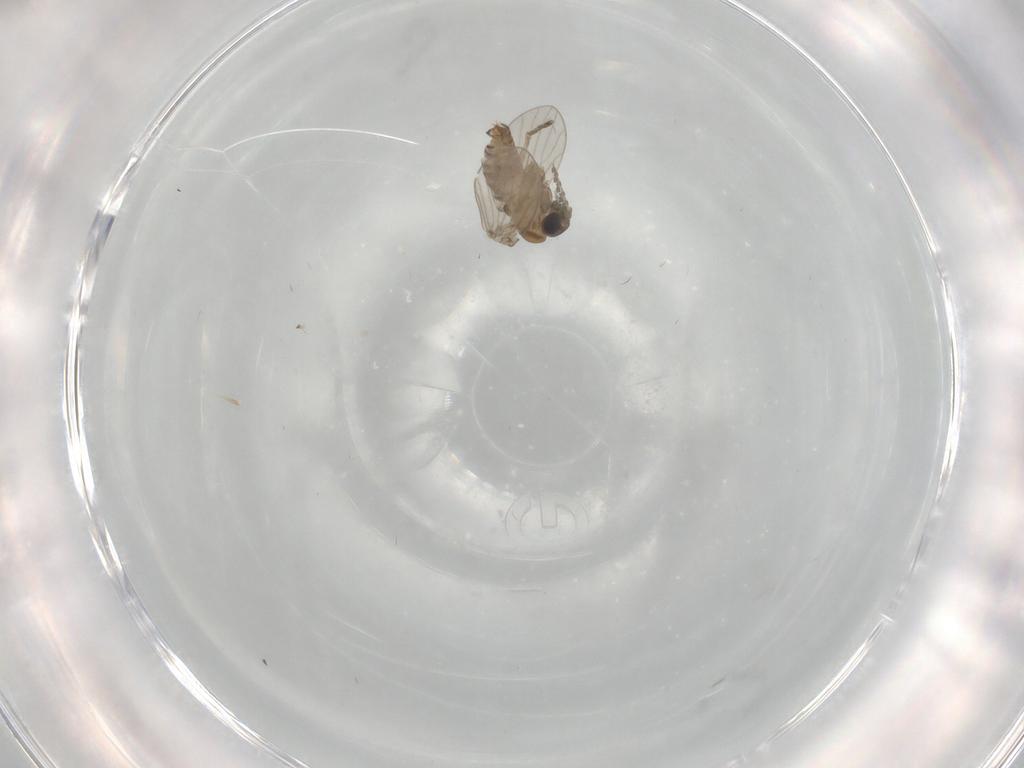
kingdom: Animalia
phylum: Arthropoda
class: Insecta
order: Diptera
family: Cecidomyiidae
